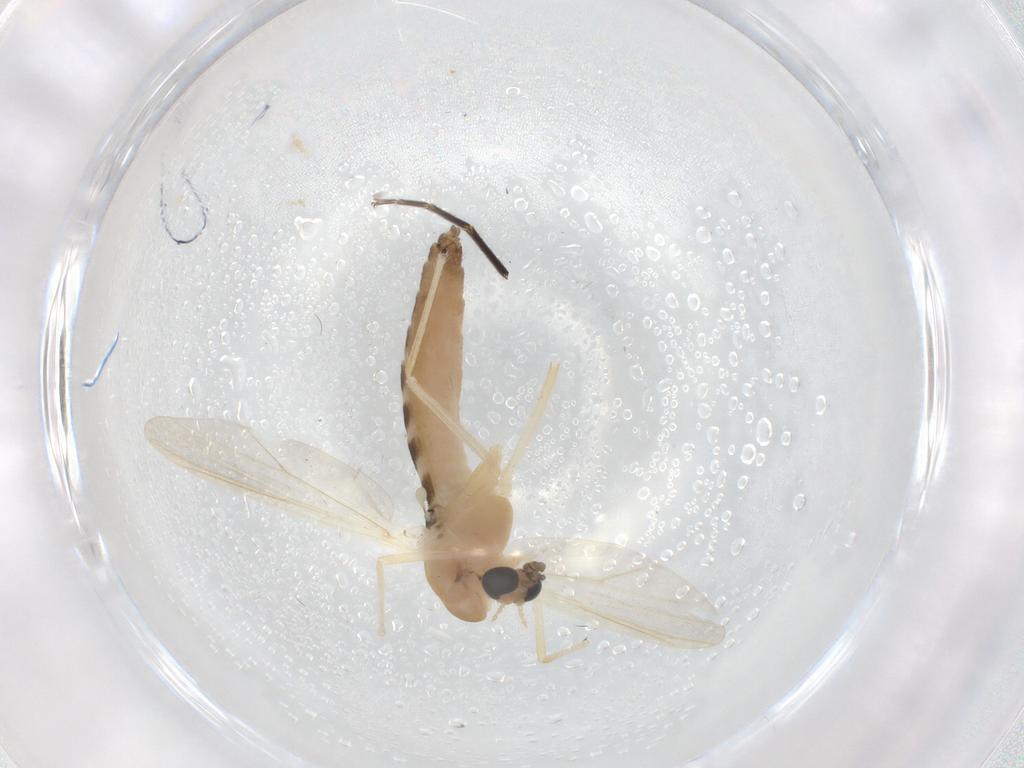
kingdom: Animalia
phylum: Arthropoda
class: Insecta
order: Diptera
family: Chironomidae
